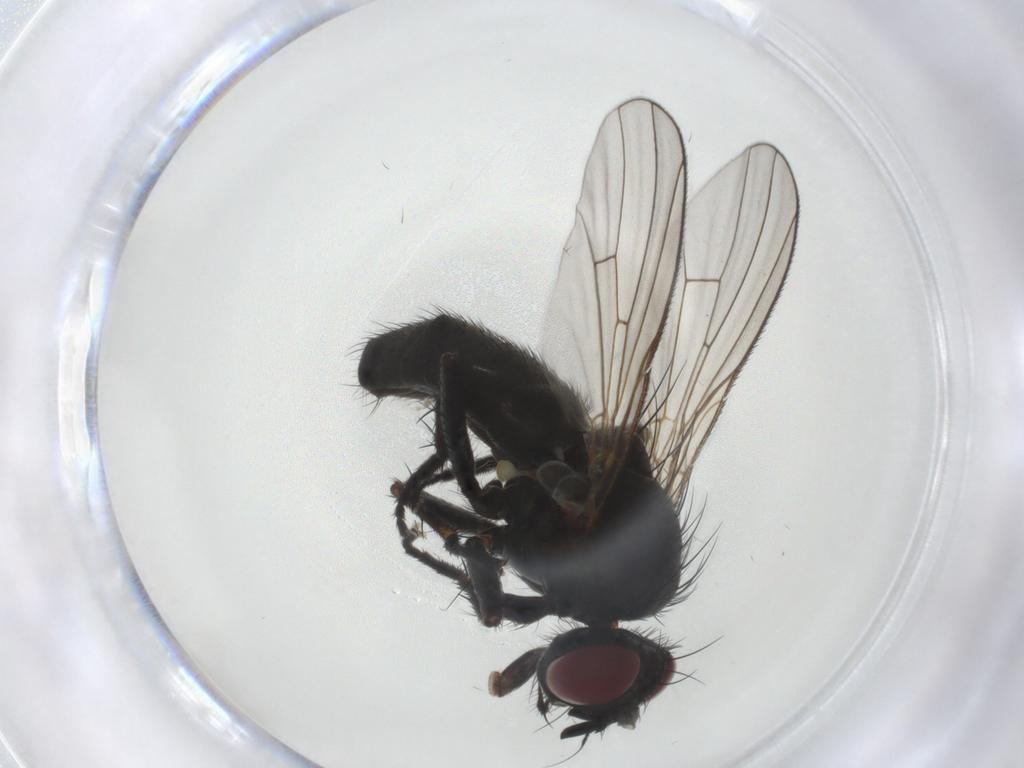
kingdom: Animalia
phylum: Arthropoda
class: Insecta
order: Diptera
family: Muscidae
